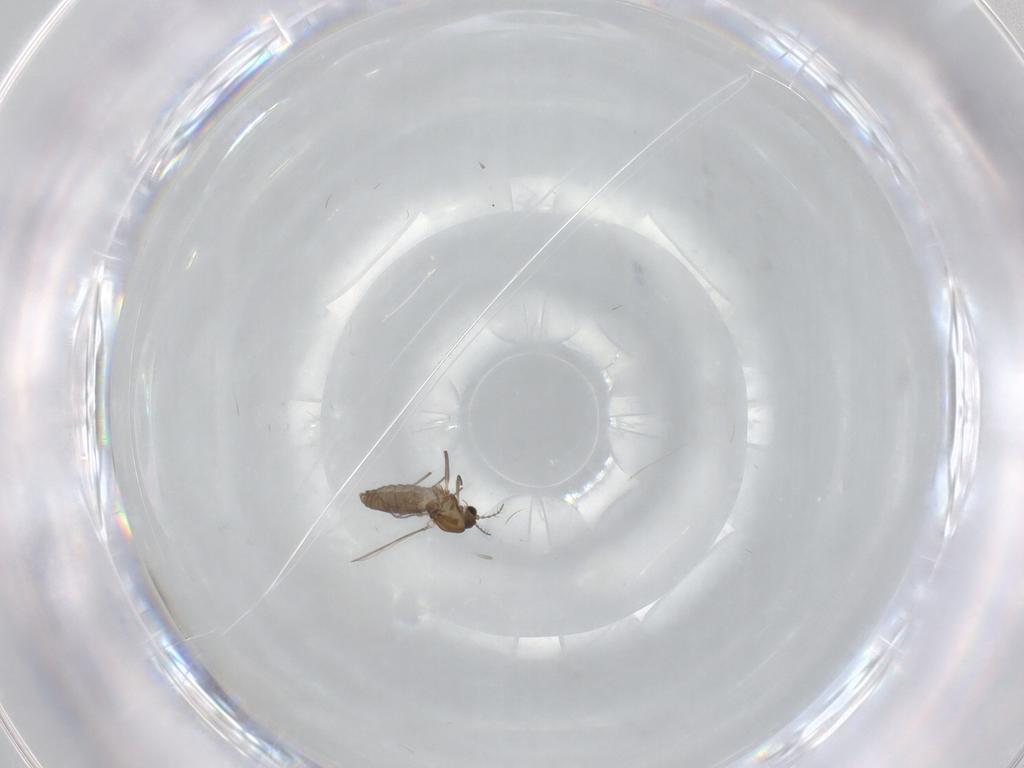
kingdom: Animalia
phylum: Arthropoda
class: Insecta
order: Diptera
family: Chironomidae
